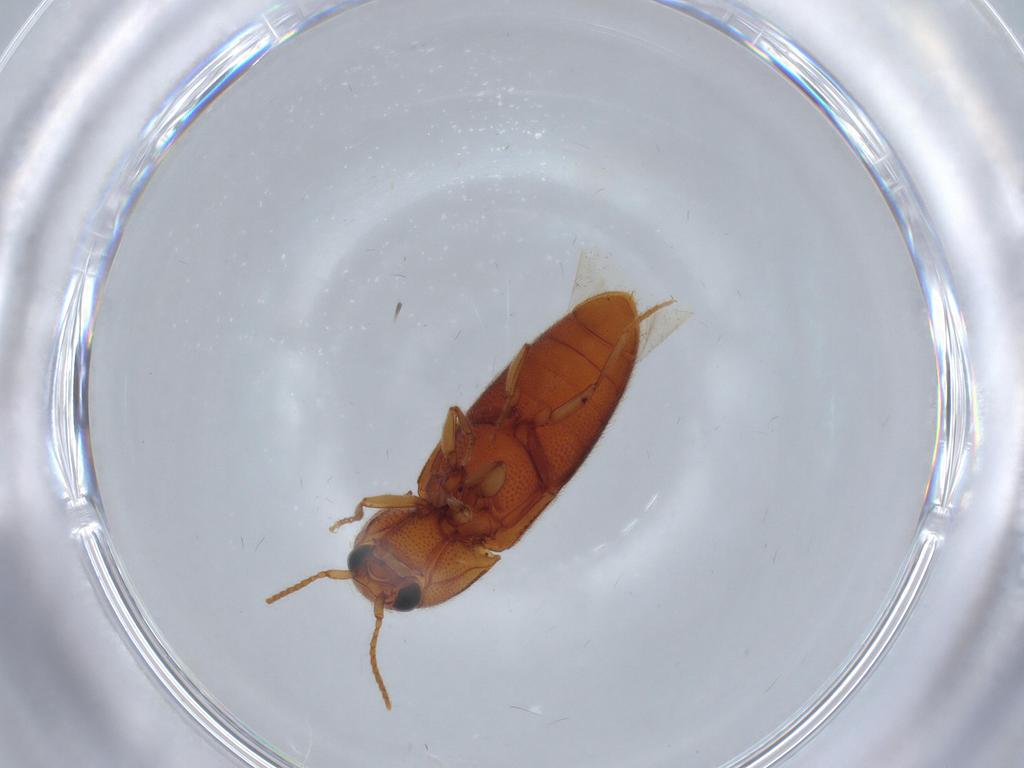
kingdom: Animalia
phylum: Arthropoda
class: Insecta
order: Coleoptera
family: Elateridae
